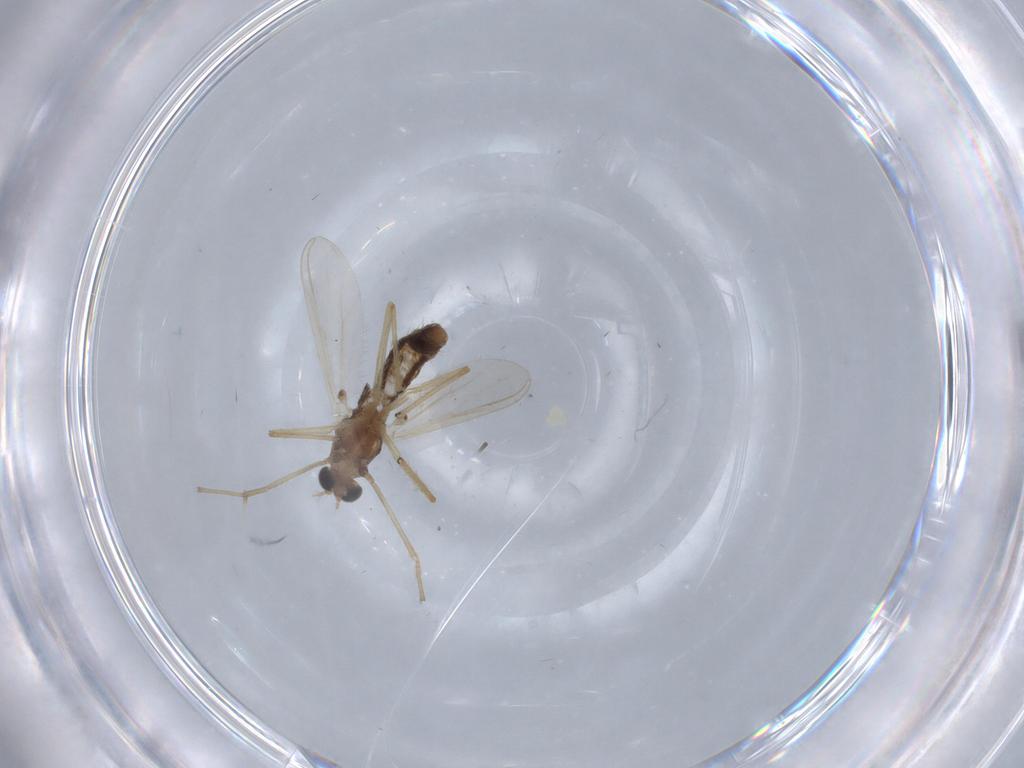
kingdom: Animalia
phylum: Arthropoda
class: Insecta
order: Diptera
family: Chironomidae
